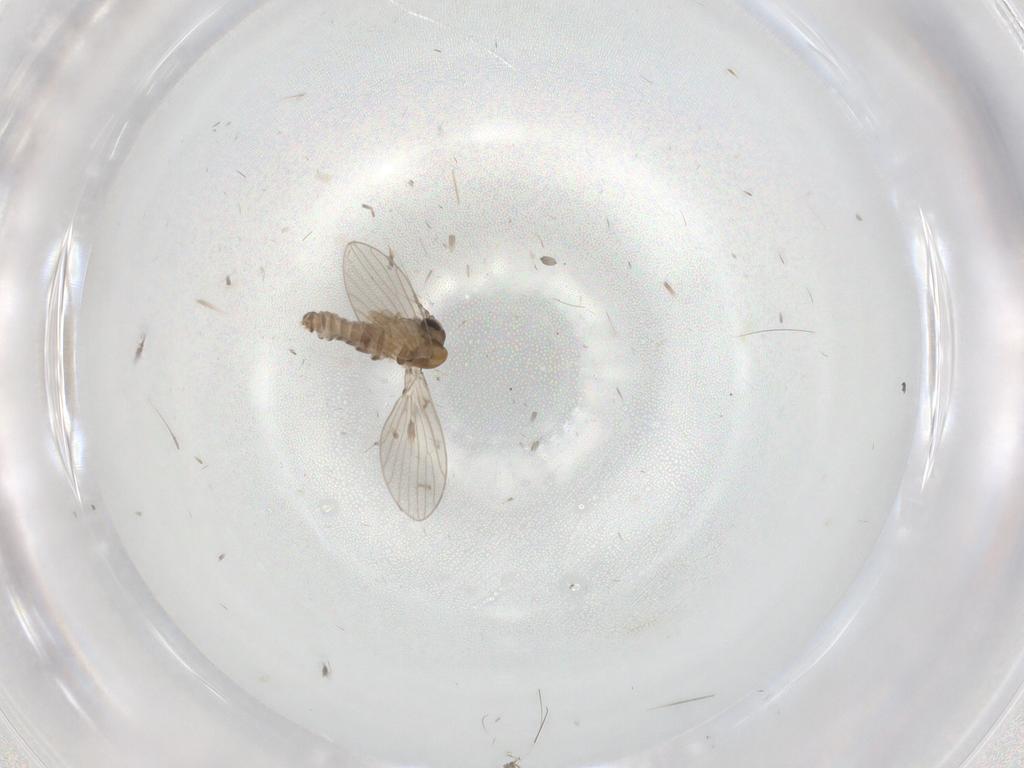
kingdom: Animalia
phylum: Arthropoda
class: Insecta
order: Diptera
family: Psychodidae
